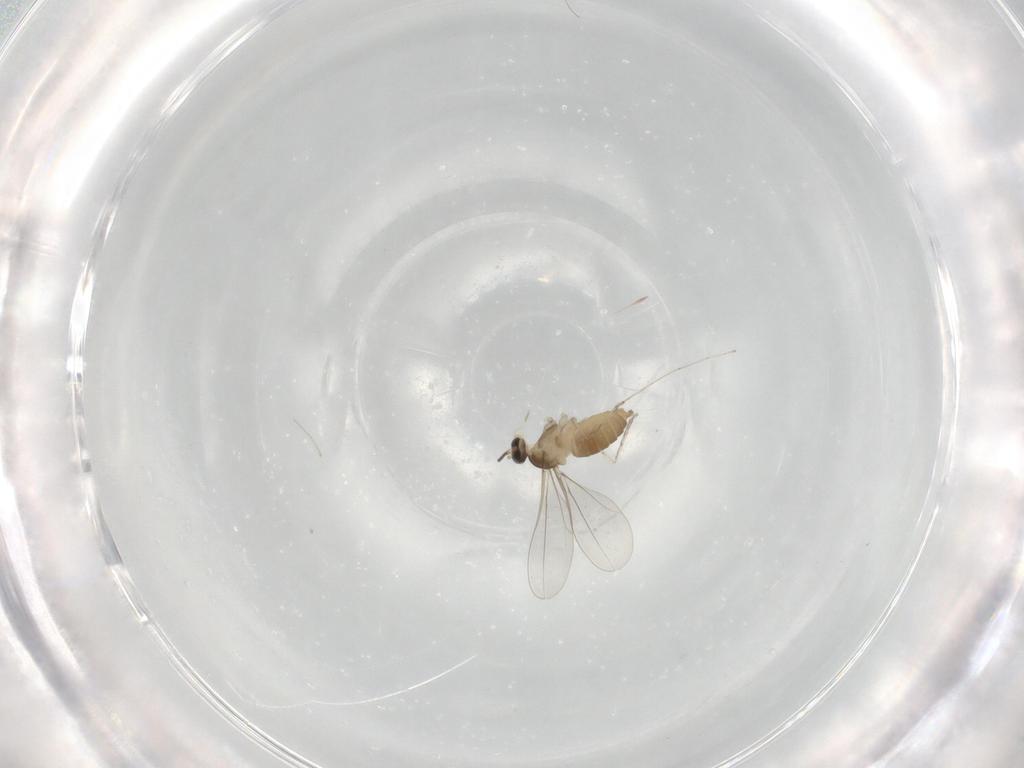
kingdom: Animalia
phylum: Arthropoda
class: Insecta
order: Diptera
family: Cecidomyiidae
